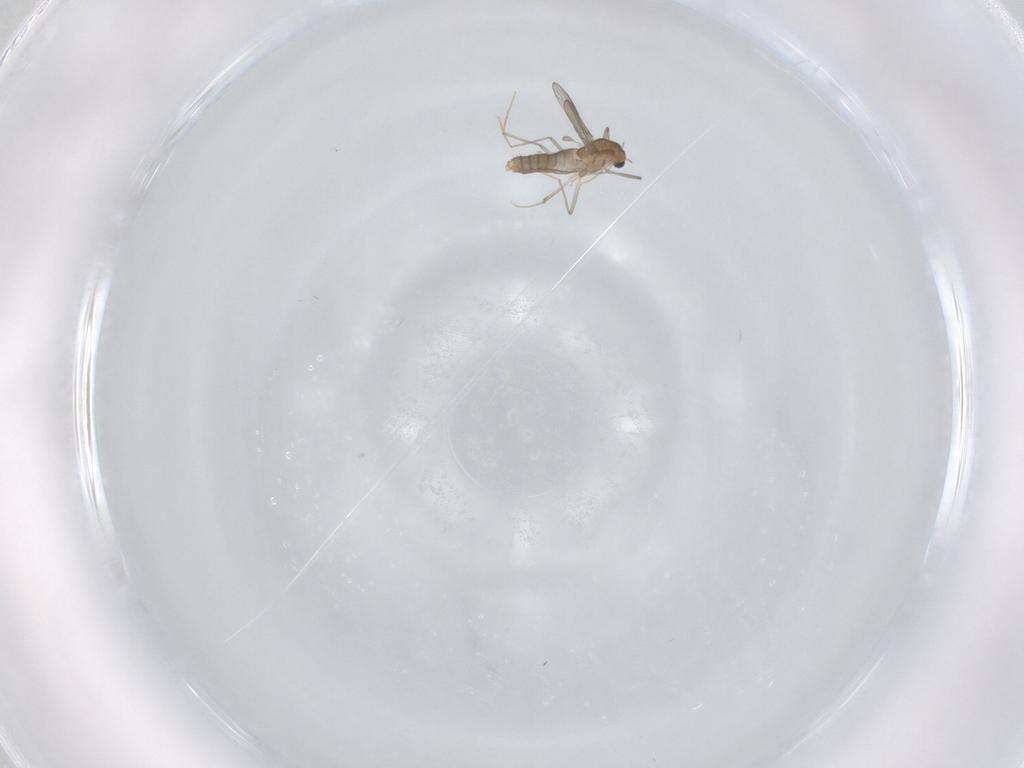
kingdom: Animalia
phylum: Arthropoda
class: Insecta
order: Diptera
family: Chironomidae
